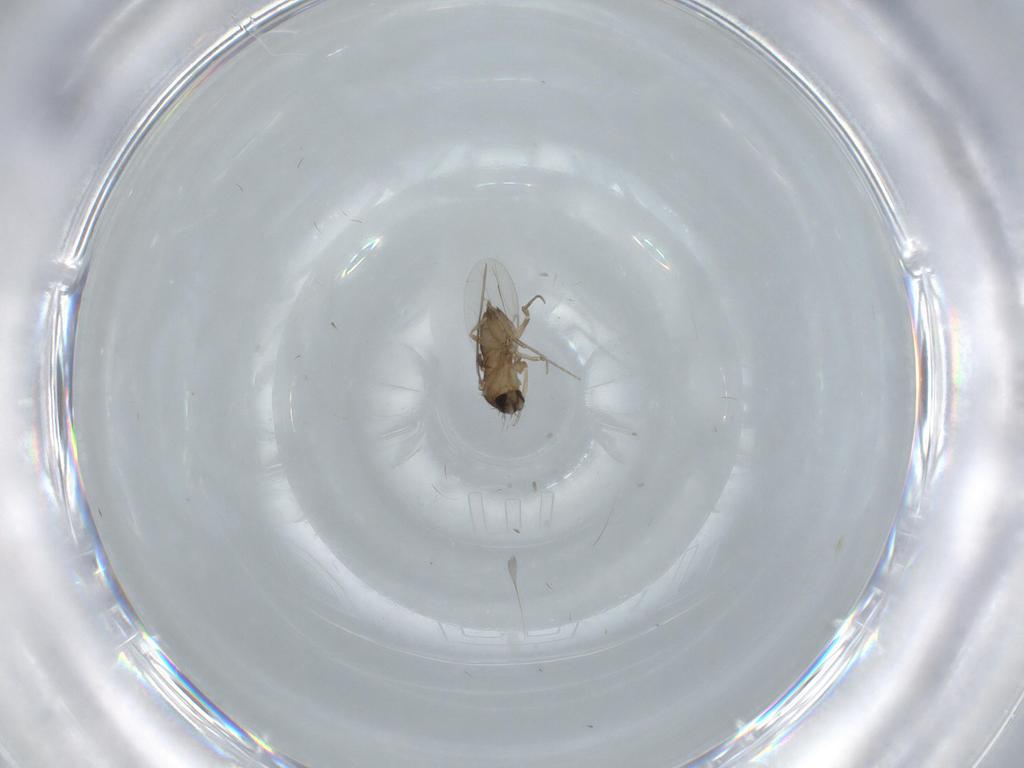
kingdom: Animalia
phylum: Arthropoda
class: Insecta
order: Diptera
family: Phoridae
